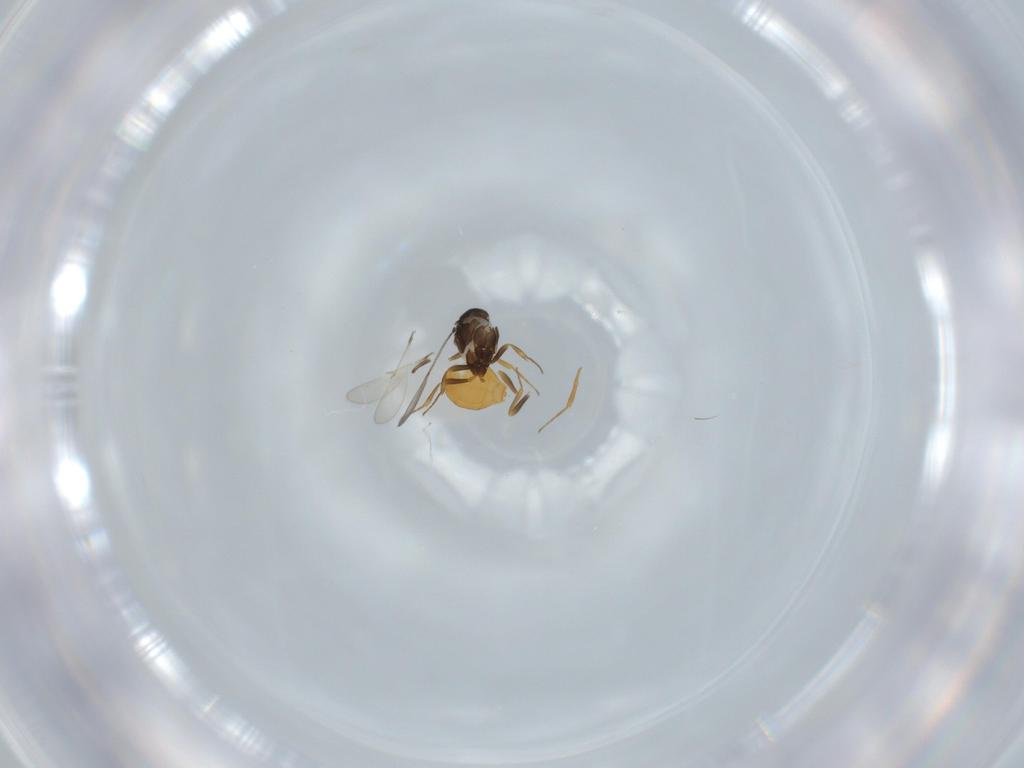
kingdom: Animalia
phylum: Arthropoda
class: Insecta
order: Hymenoptera
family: Scelionidae
